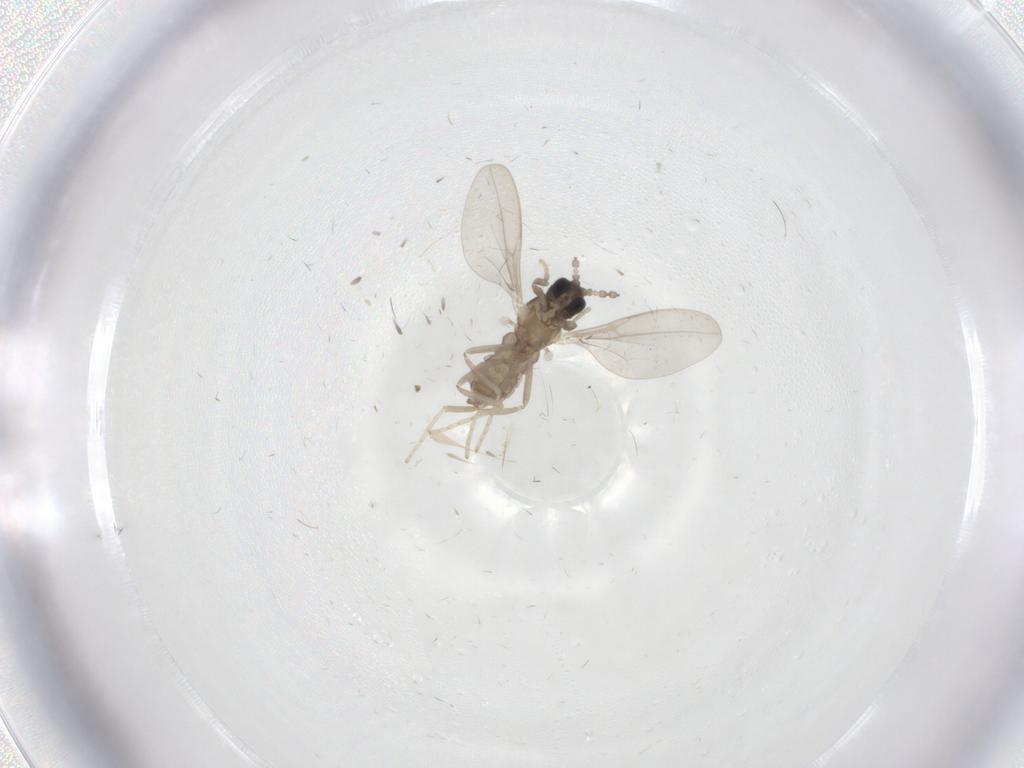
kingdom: Animalia
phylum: Arthropoda
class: Insecta
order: Diptera
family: Cecidomyiidae
